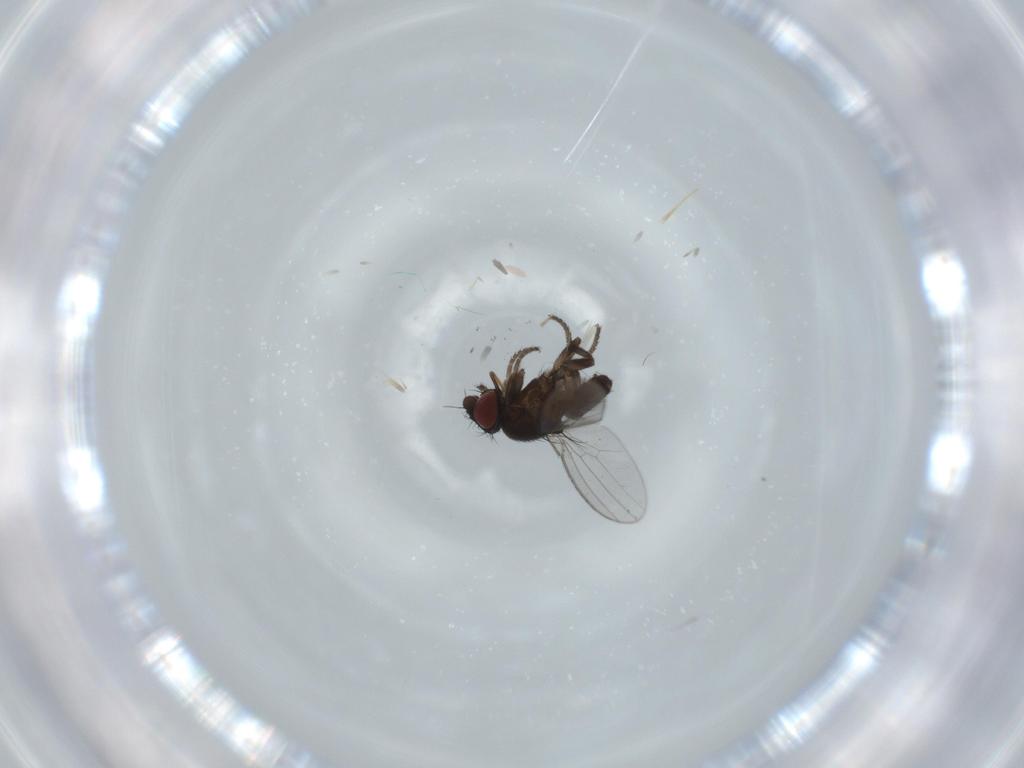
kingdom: Animalia
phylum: Arthropoda
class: Insecta
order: Diptera
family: Milichiidae
